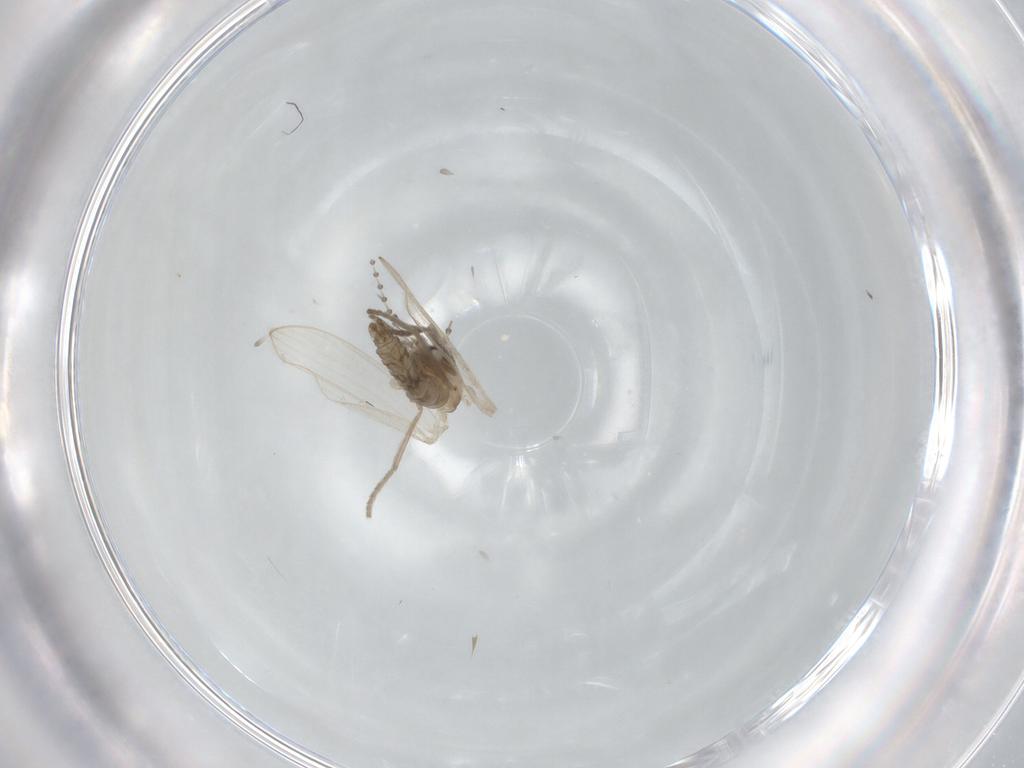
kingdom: Animalia
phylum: Arthropoda
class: Insecta
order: Diptera
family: Psychodidae
